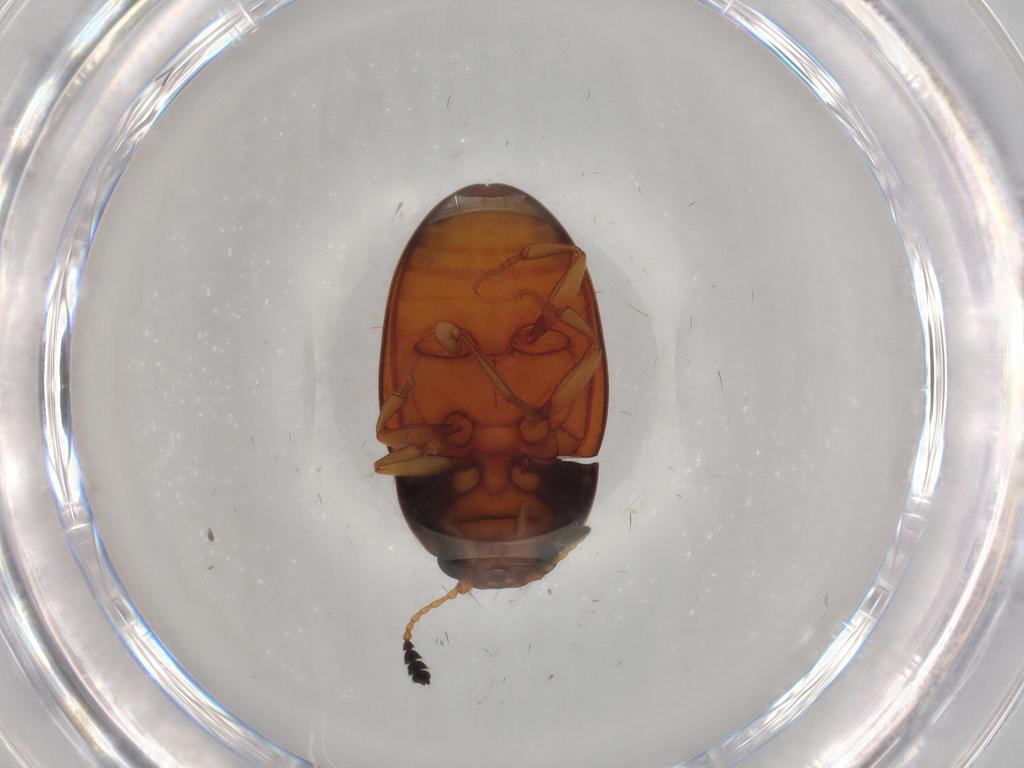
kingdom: Animalia
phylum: Arthropoda
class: Insecta
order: Coleoptera
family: Erotylidae
